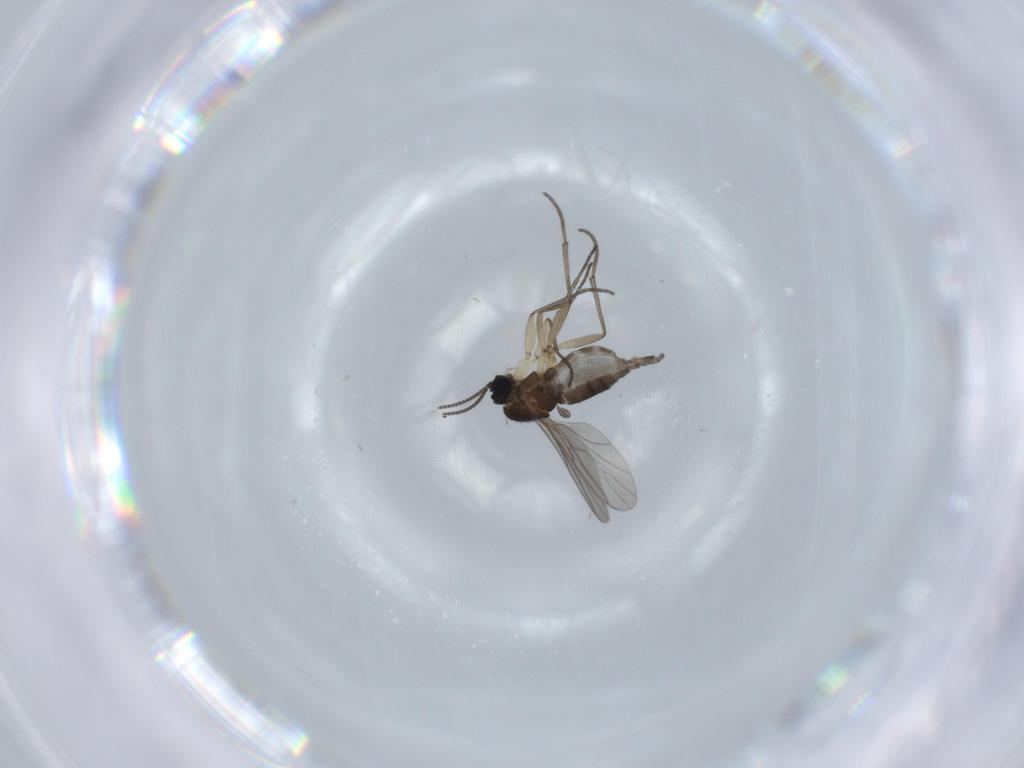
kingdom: Animalia
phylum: Arthropoda
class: Insecta
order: Diptera
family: Sciaridae
